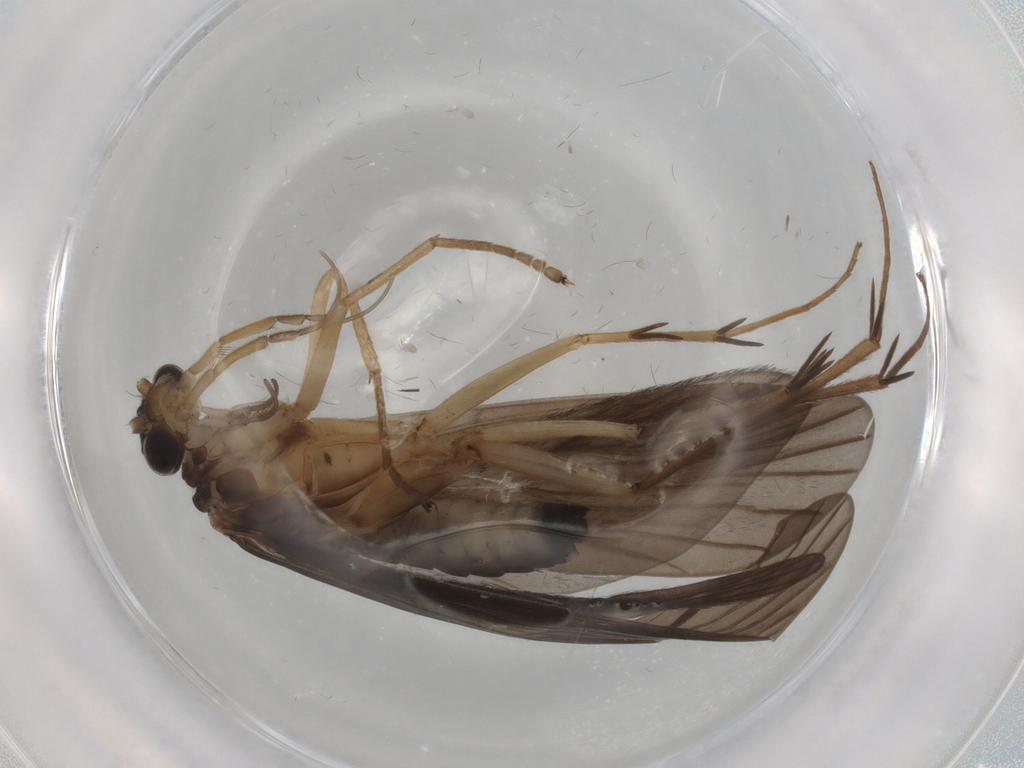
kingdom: Animalia
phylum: Arthropoda
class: Insecta
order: Trichoptera
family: Philopotamidae
